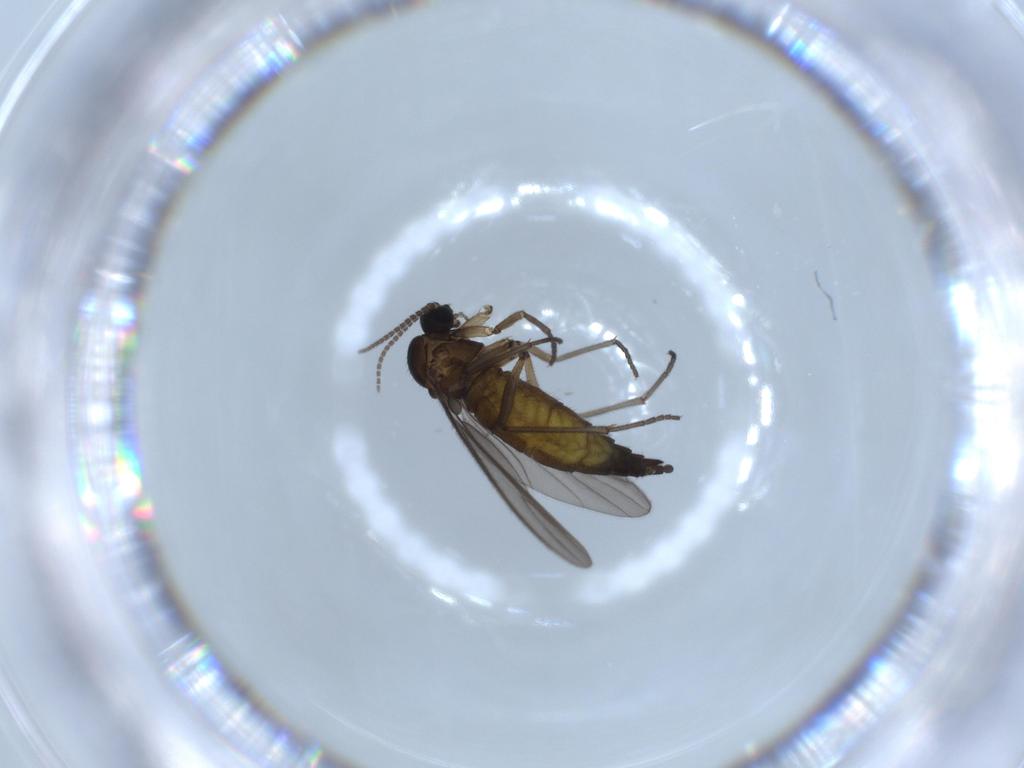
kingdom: Animalia
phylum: Arthropoda
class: Insecta
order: Diptera
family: Sciaridae
